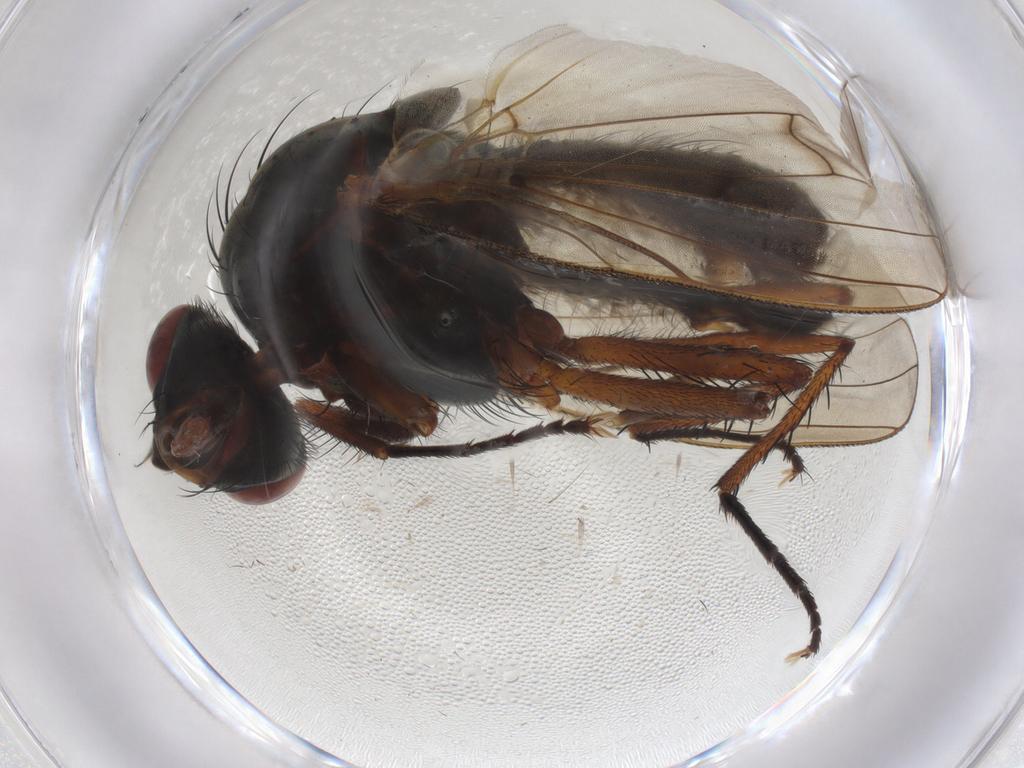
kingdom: Animalia
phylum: Arthropoda
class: Insecta
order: Diptera
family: Anthomyiidae
